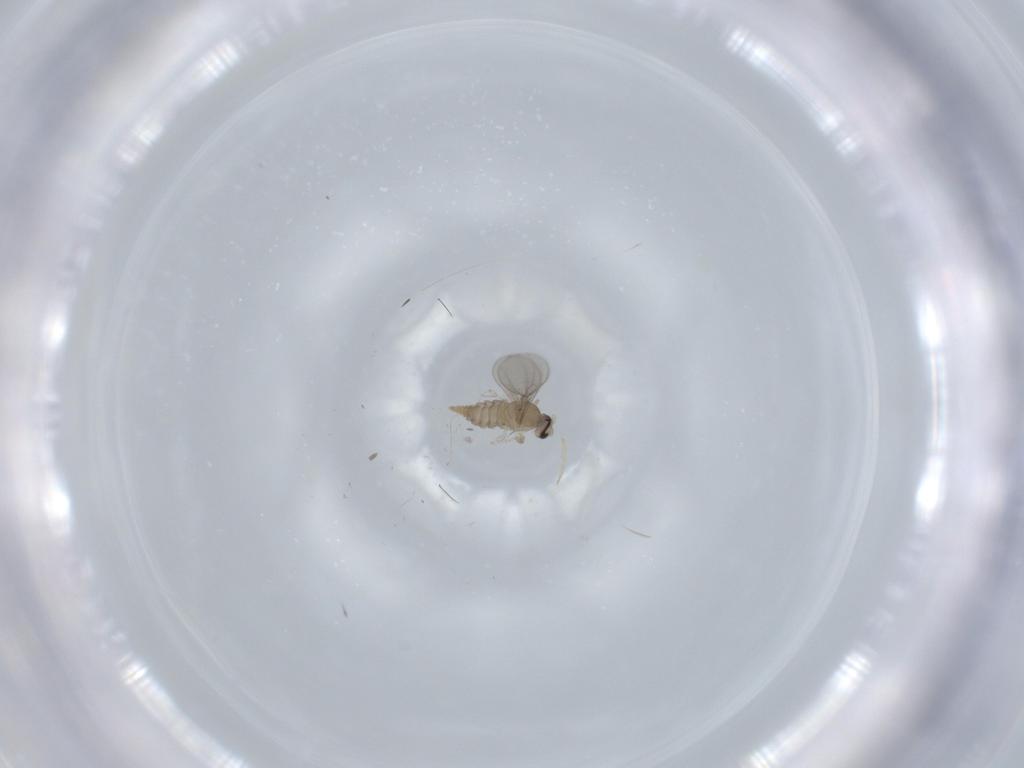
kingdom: Animalia
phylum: Arthropoda
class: Insecta
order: Diptera
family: Cecidomyiidae
